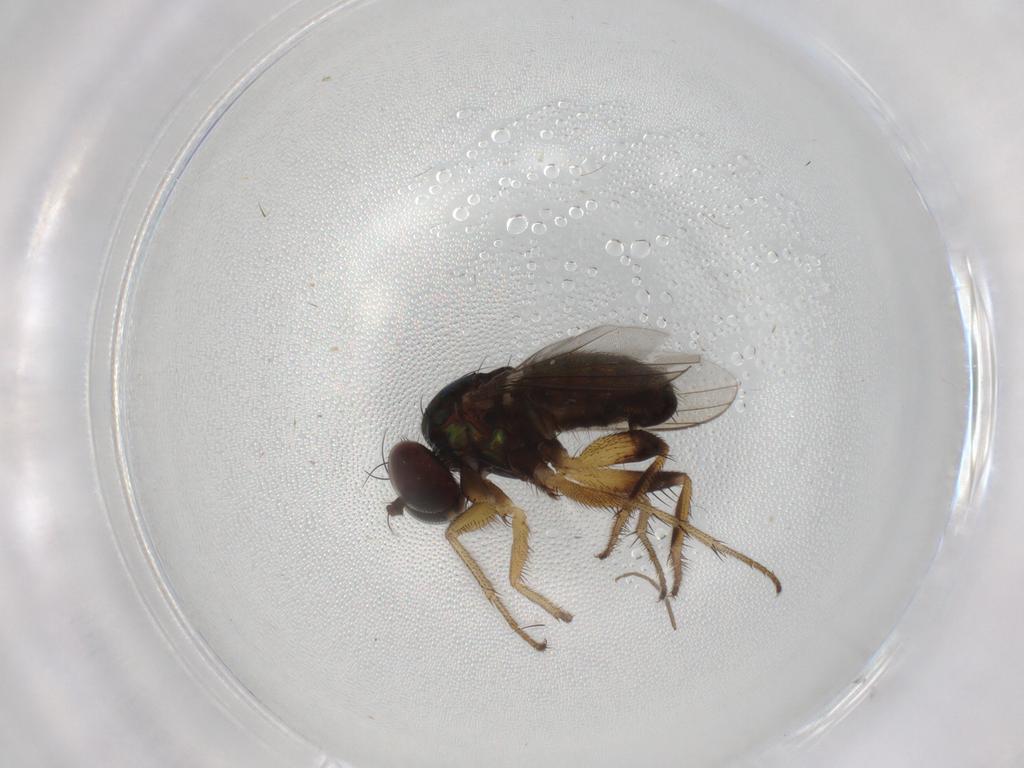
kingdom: Animalia
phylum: Arthropoda
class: Insecta
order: Diptera
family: Dolichopodidae
